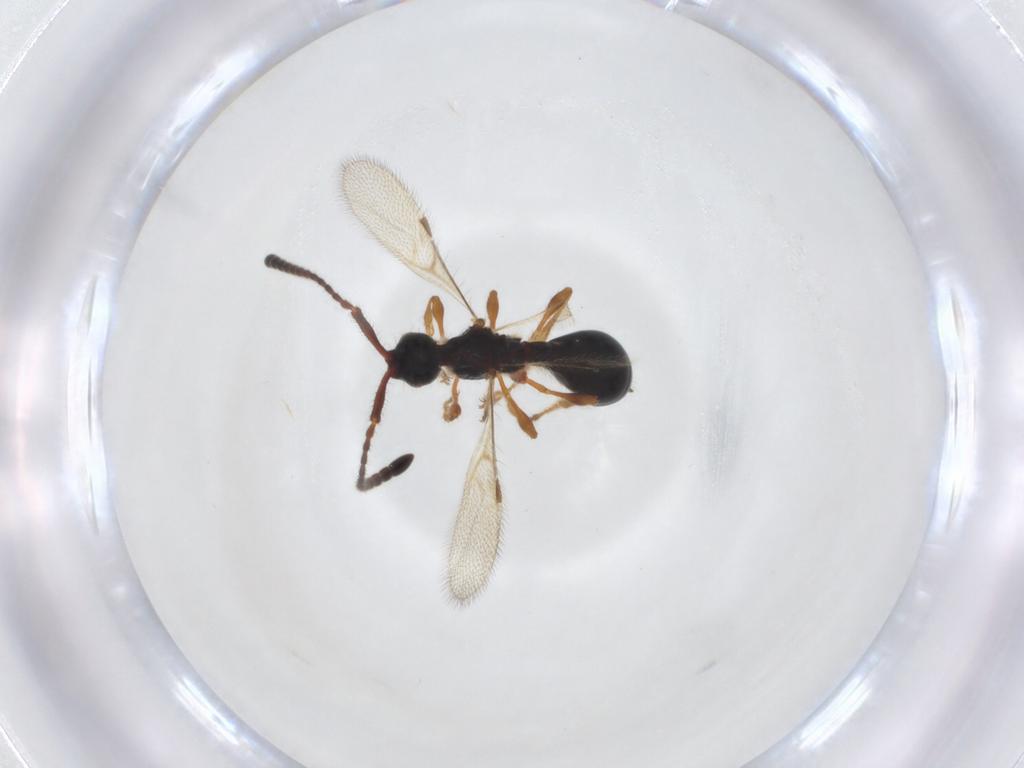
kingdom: Animalia
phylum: Arthropoda
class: Insecta
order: Hymenoptera
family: Diapriidae
